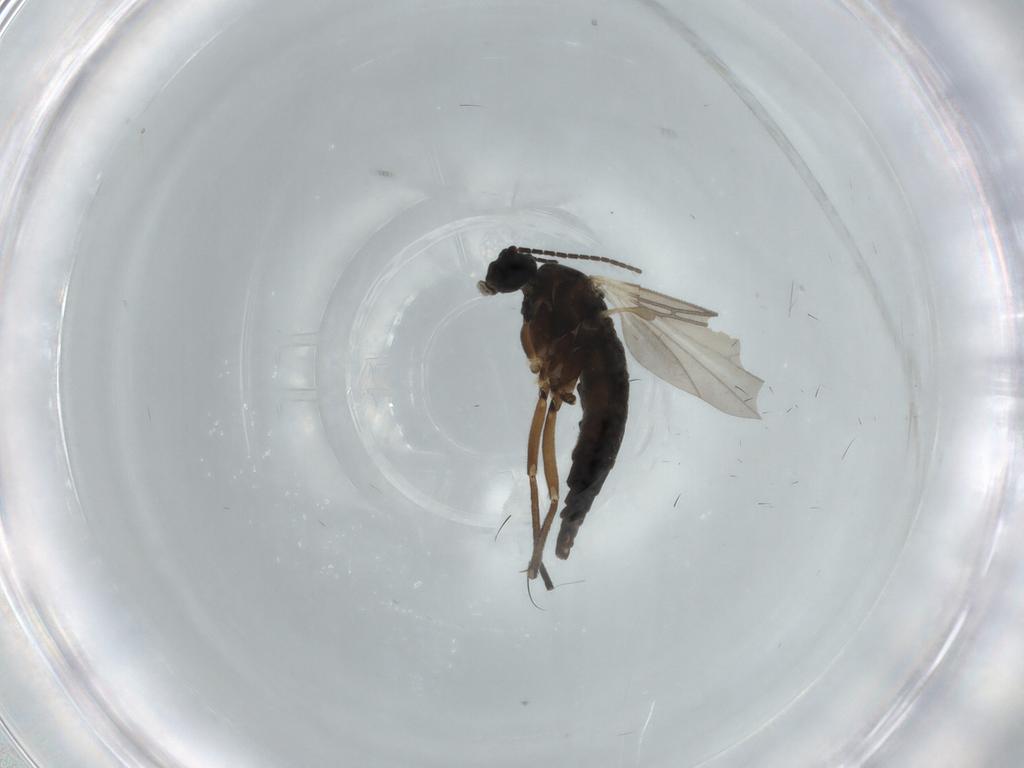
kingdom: Animalia
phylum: Arthropoda
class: Insecta
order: Diptera
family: Sciaridae
